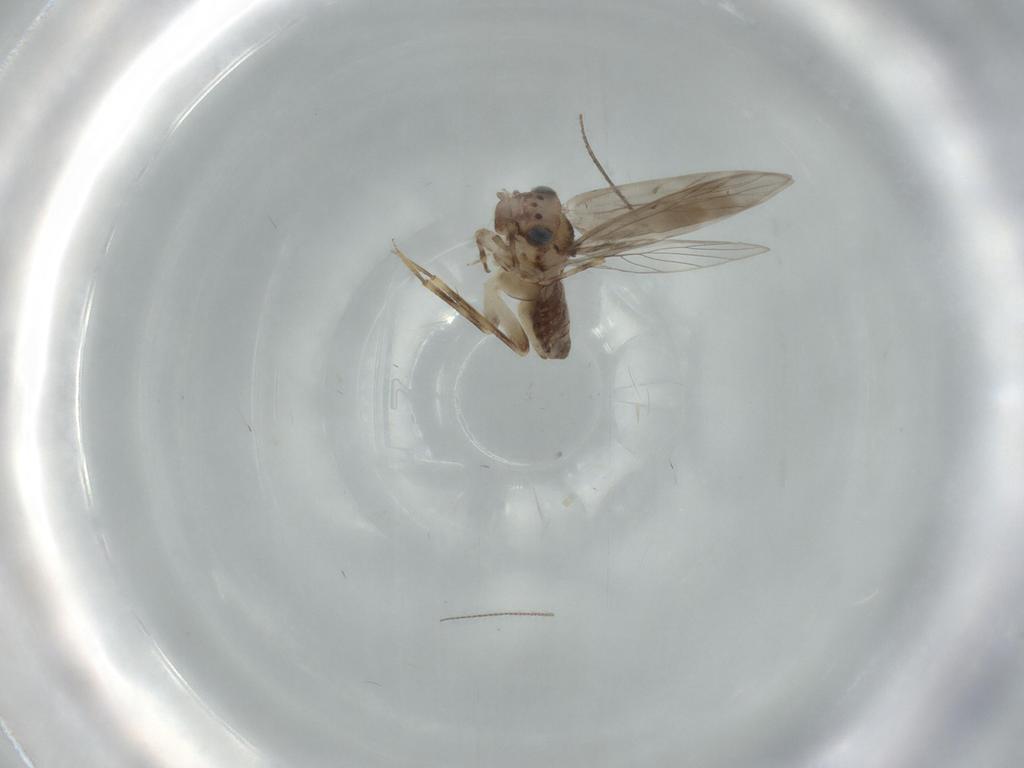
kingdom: Animalia
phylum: Arthropoda
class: Insecta
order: Psocodea
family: Lepidopsocidae
